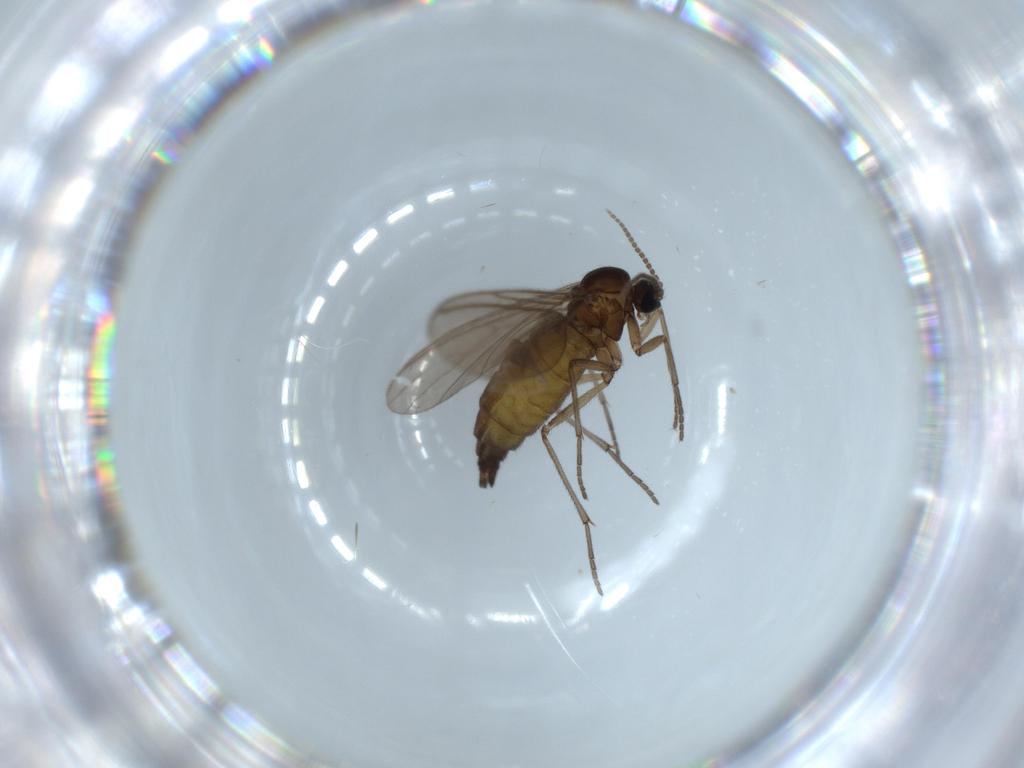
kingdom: Animalia
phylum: Arthropoda
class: Insecta
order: Diptera
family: Sciaridae
